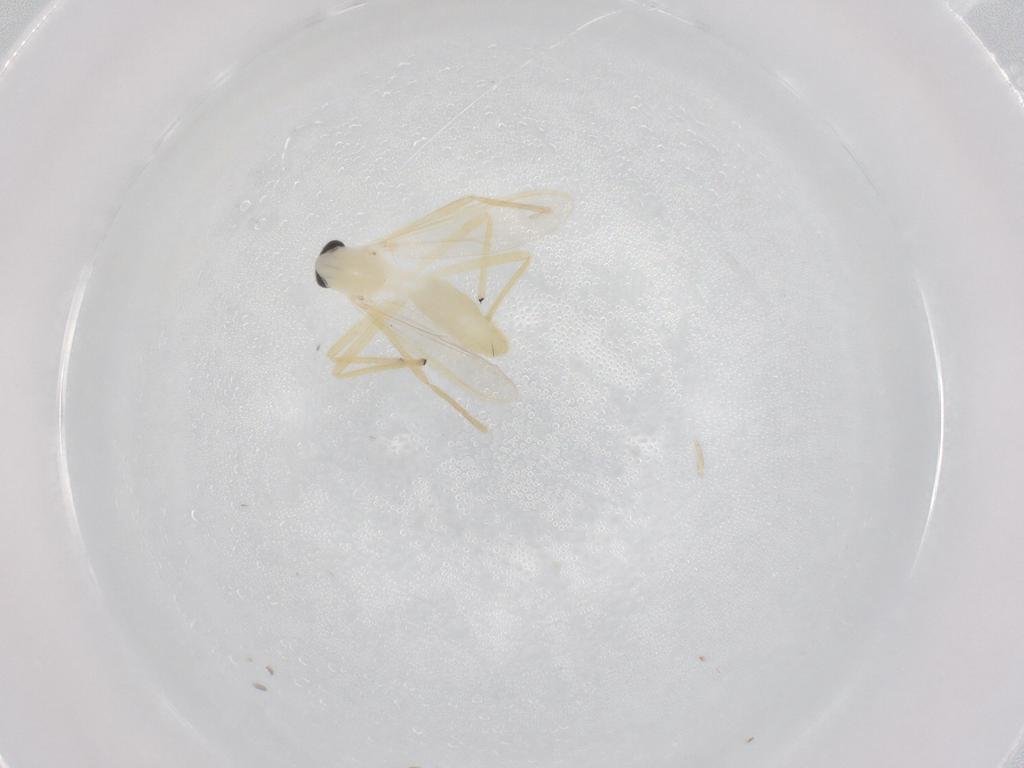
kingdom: Animalia
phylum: Arthropoda
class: Insecta
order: Diptera
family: Chironomidae
